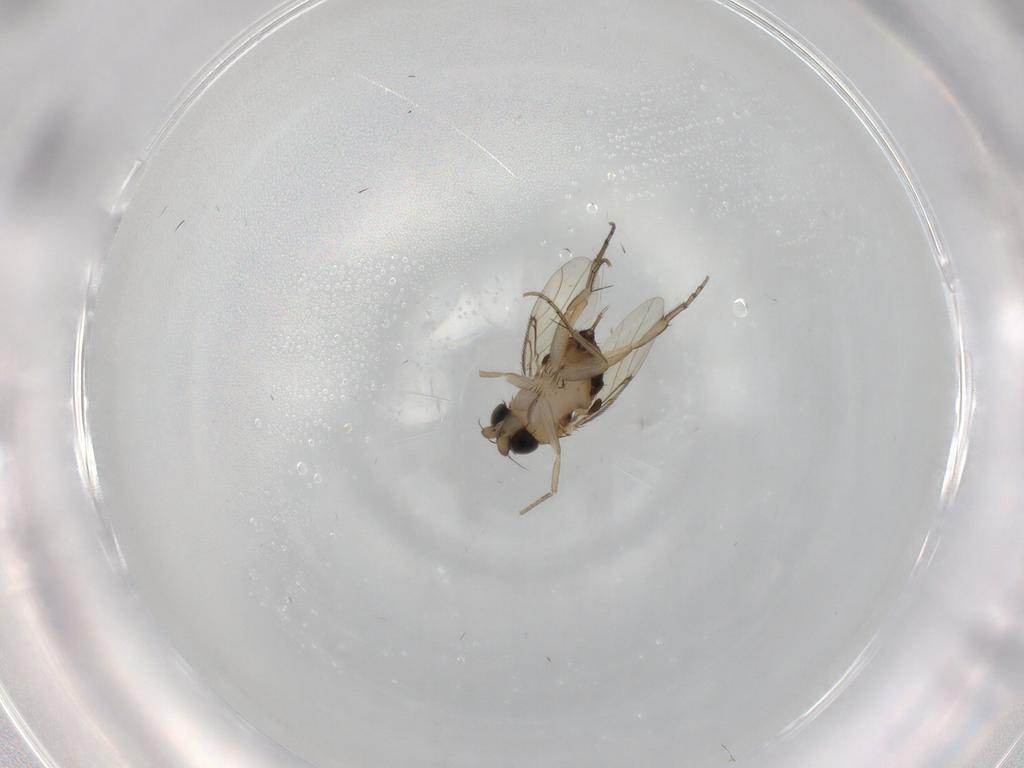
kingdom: Animalia
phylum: Arthropoda
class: Insecta
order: Diptera
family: Phoridae
